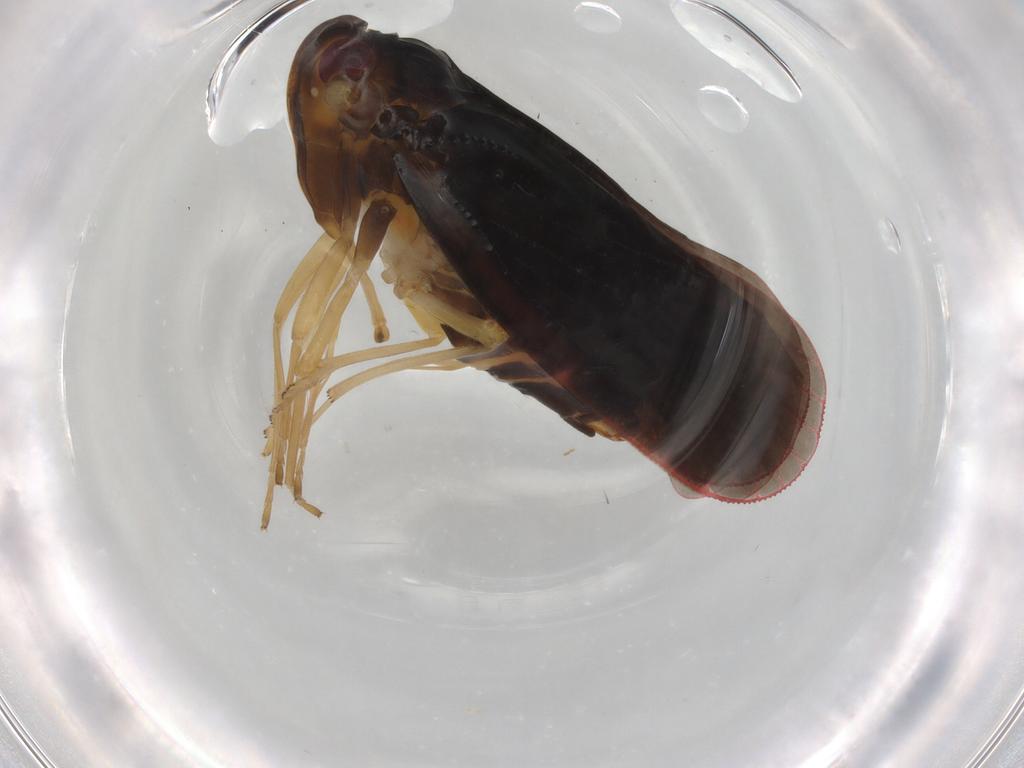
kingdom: Animalia
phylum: Arthropoda
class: Insecta
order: Hemiptera
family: Derbidae
